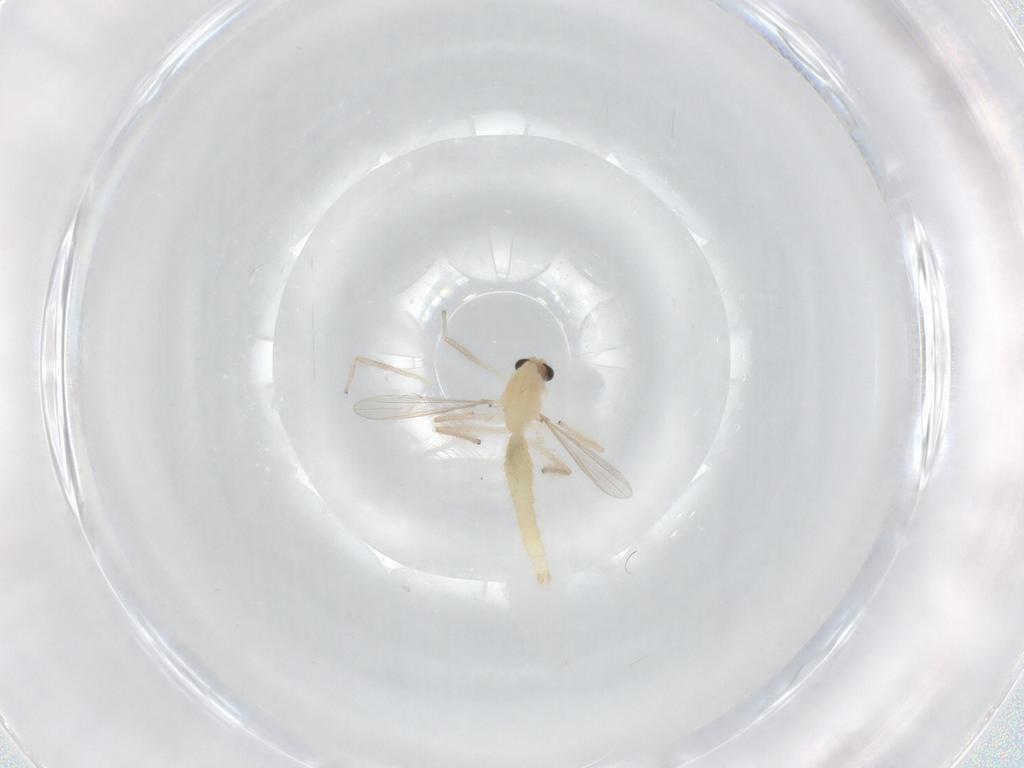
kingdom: Animalia
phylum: Arthropoda
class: Insecta
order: Diptera
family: Chironomidae
